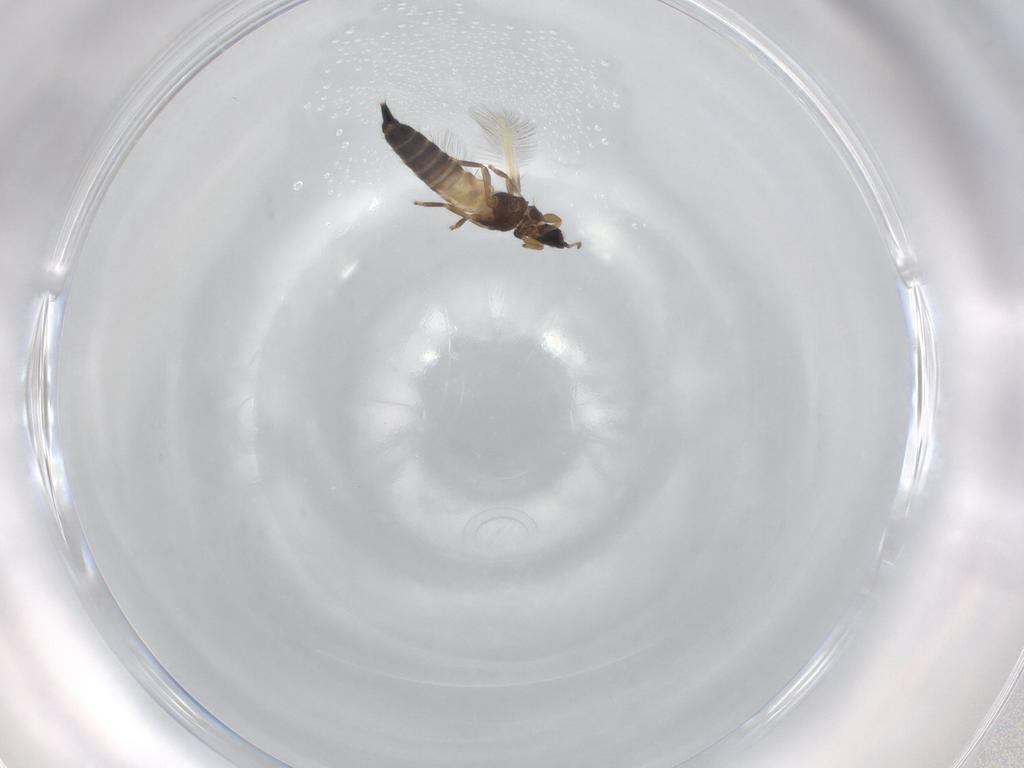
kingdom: Animalia
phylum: Arthropoda
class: Insecta
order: Thysanoptera
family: Phlaeothripidae
